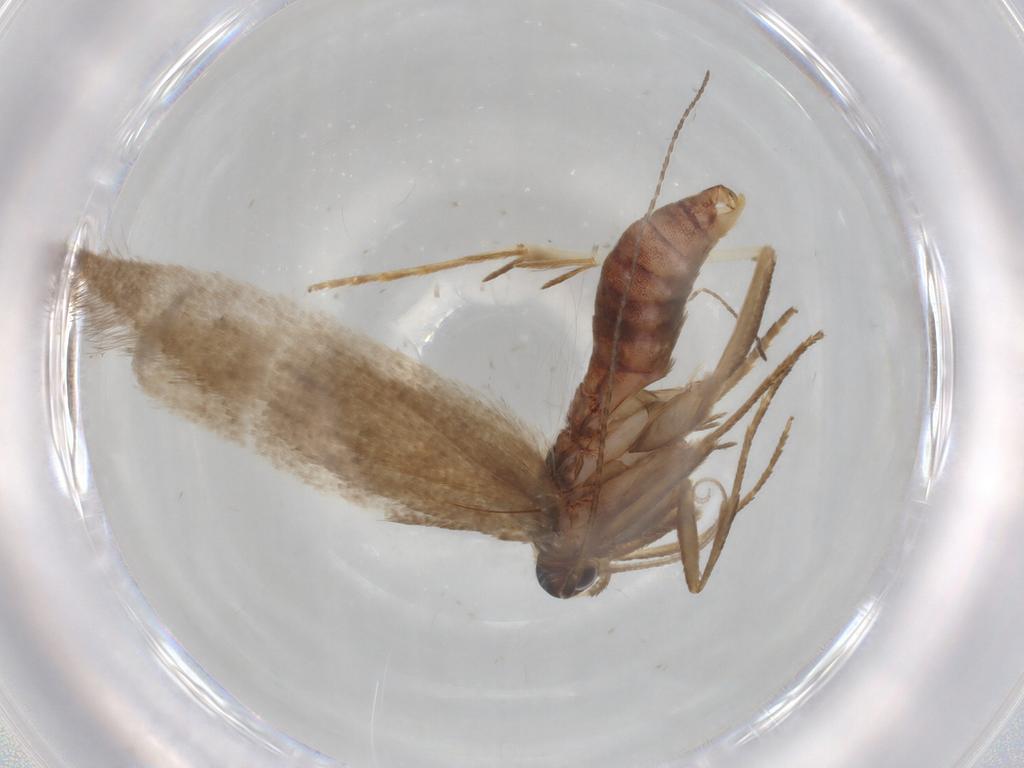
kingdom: Animalia
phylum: Arthropoda
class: Insecta
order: Lepidoptera
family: Erebidae
